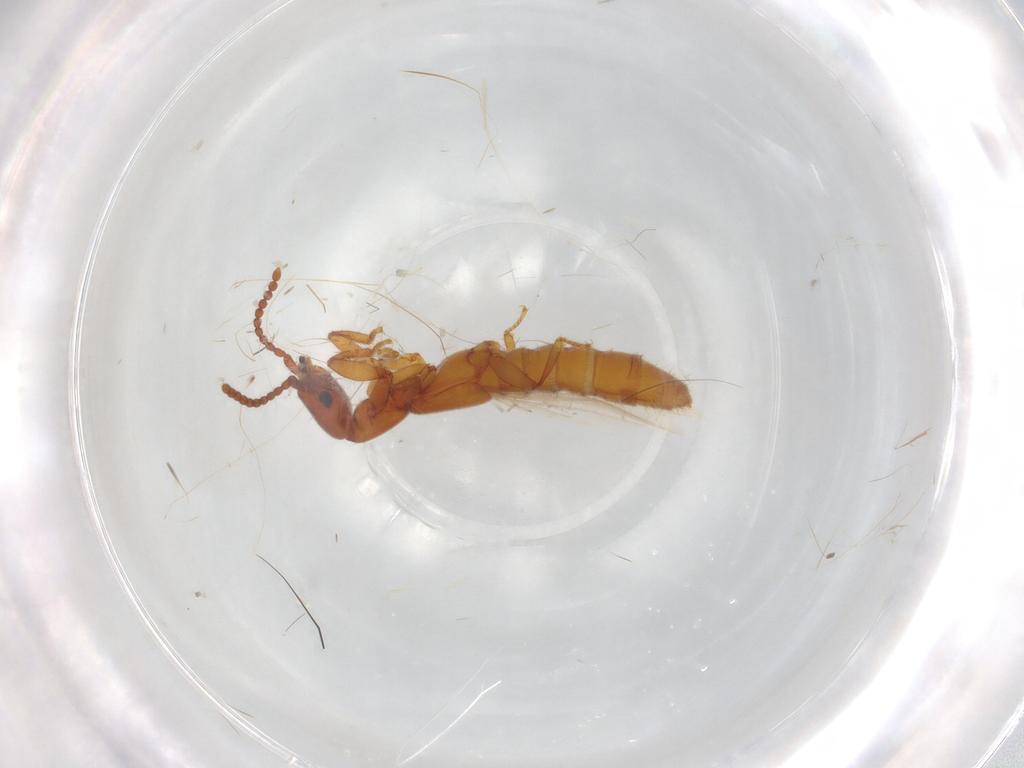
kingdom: Animalia
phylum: Arthropoda
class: Insecta
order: Coleoptera
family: Staphylinidae
